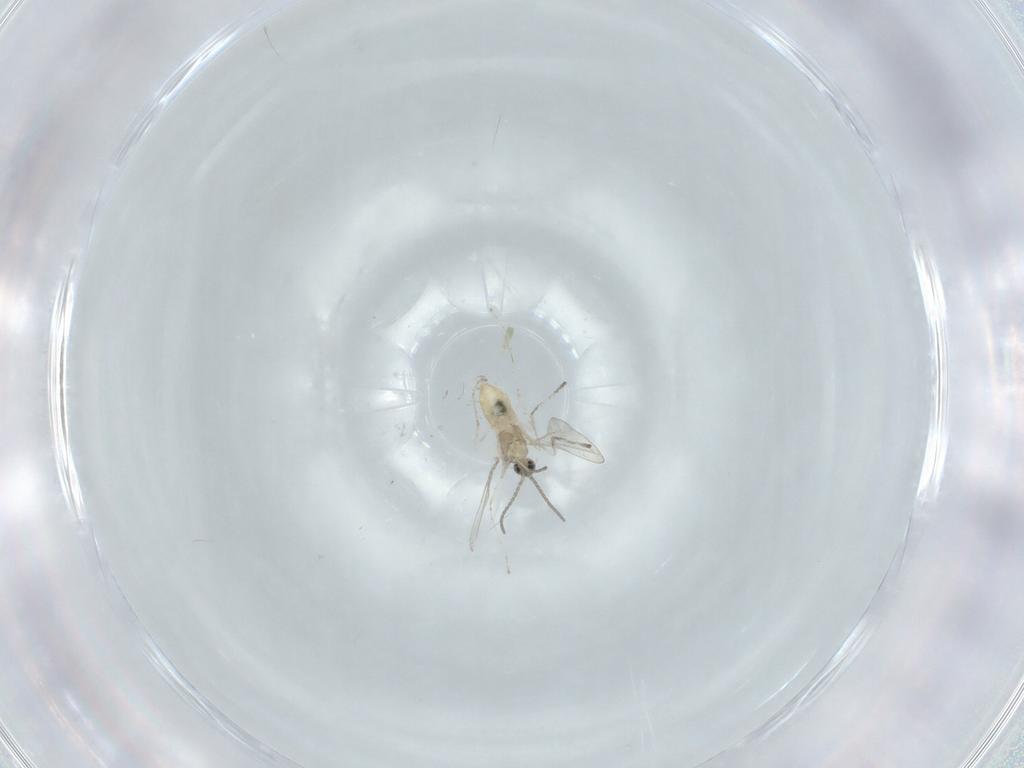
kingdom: Animalia
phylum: Arthropoda
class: Insecta
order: Diptera
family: Cecidomyiidae
